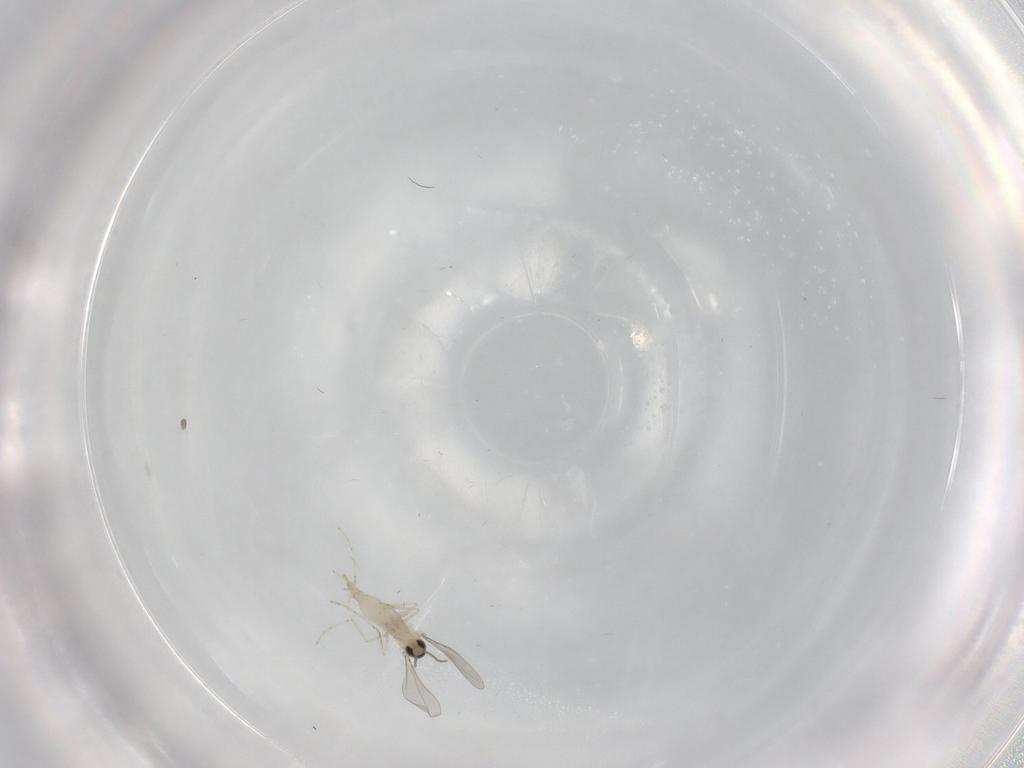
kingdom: Animalia
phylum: Arthropoda
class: Insecta
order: Diptera
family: Cecidomyiidae
